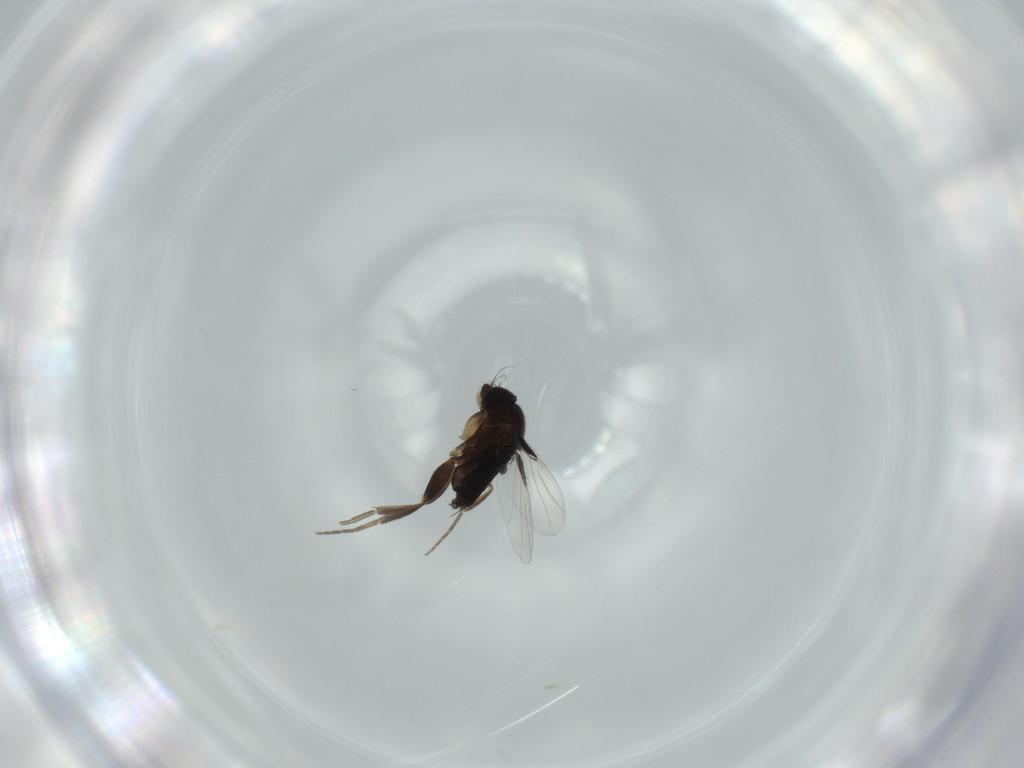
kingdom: Animalia
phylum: Arthropoda
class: Insecta
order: Diptera
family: Phoridae
